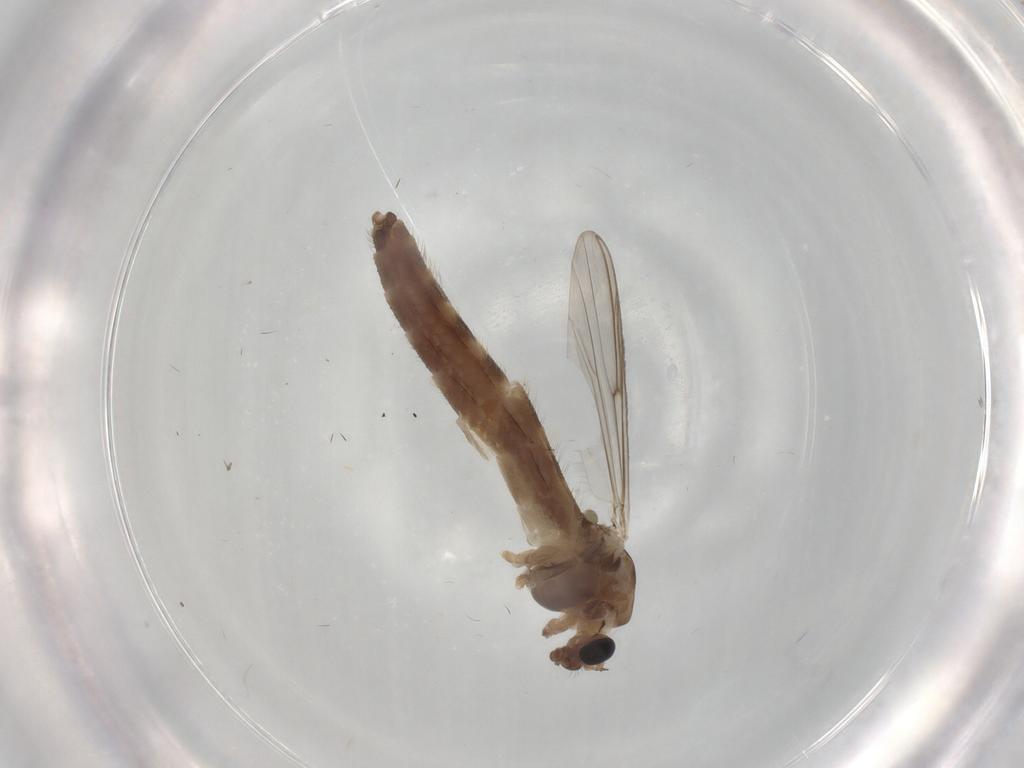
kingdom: Animalia
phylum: Arthropoda
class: Insecta
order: Diptera
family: Chironomidae
